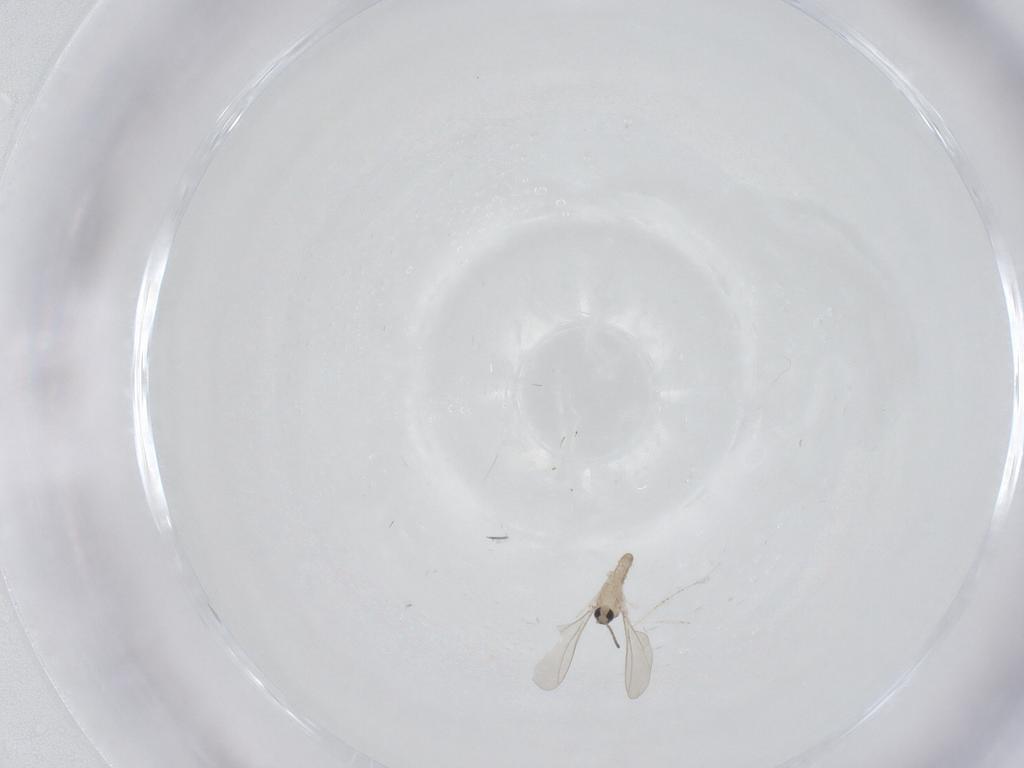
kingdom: Animalia
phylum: Arthropoda
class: Insecta
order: Diptera
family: Cecidomyiidae
